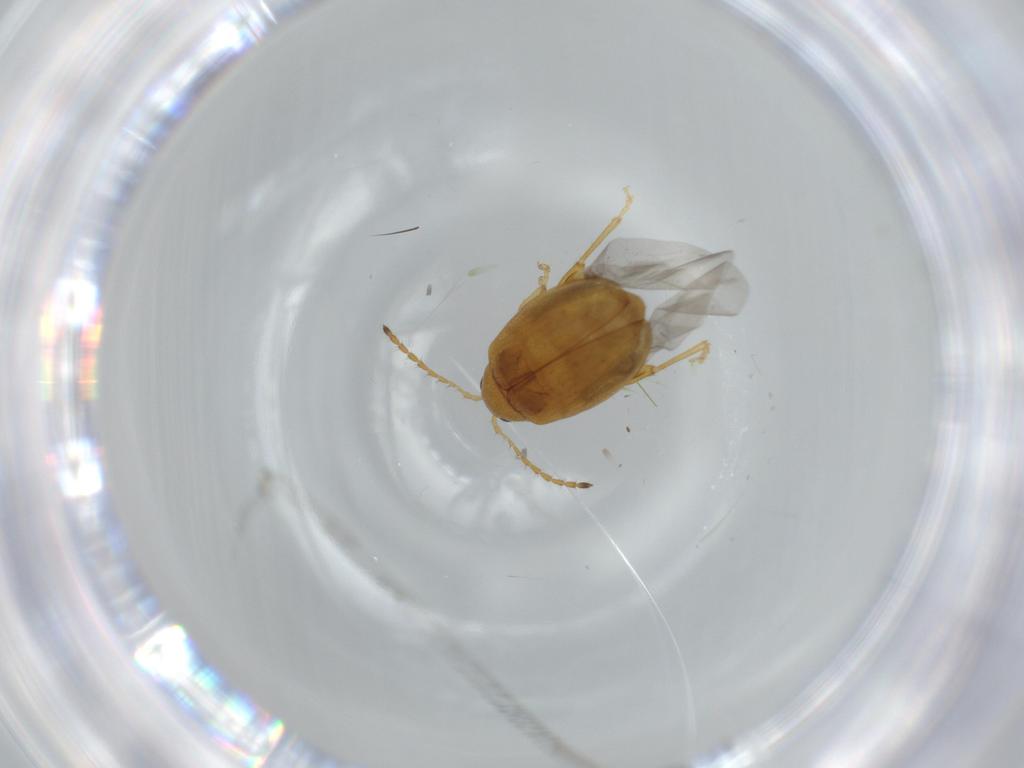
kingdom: Animalia
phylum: Arthropoda
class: Insecta
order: Coleoptera
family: Chrysomelidae
